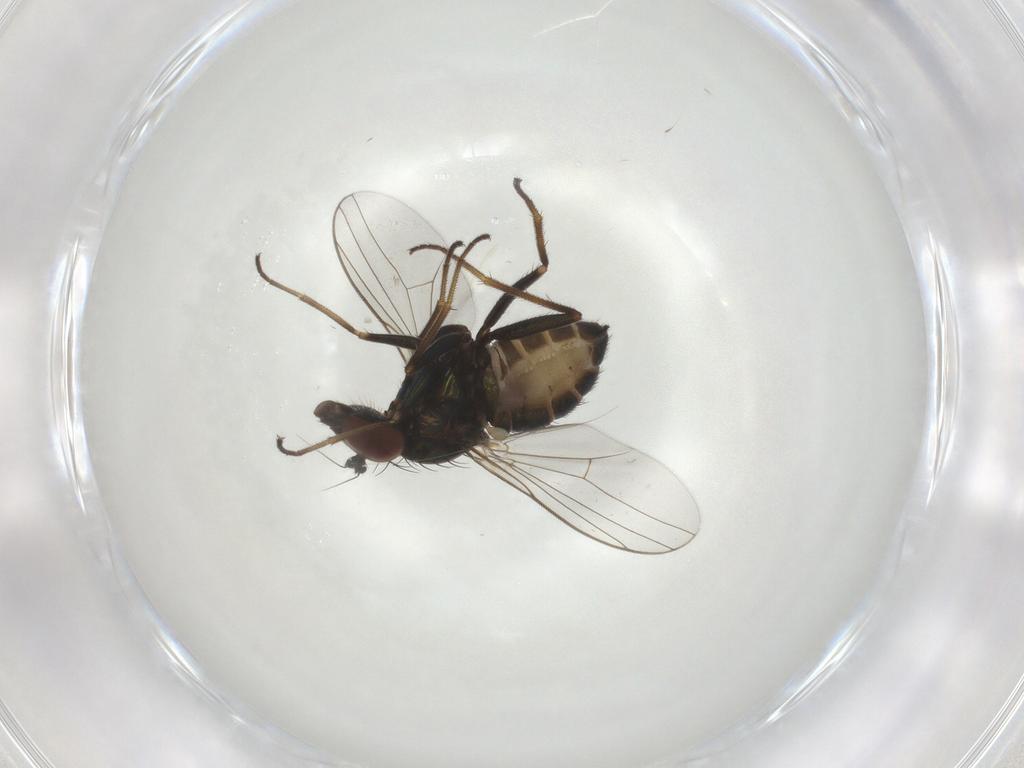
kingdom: Animalia
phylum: Arthropoda
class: Insecta
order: Diptera
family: Dolichopodidae
